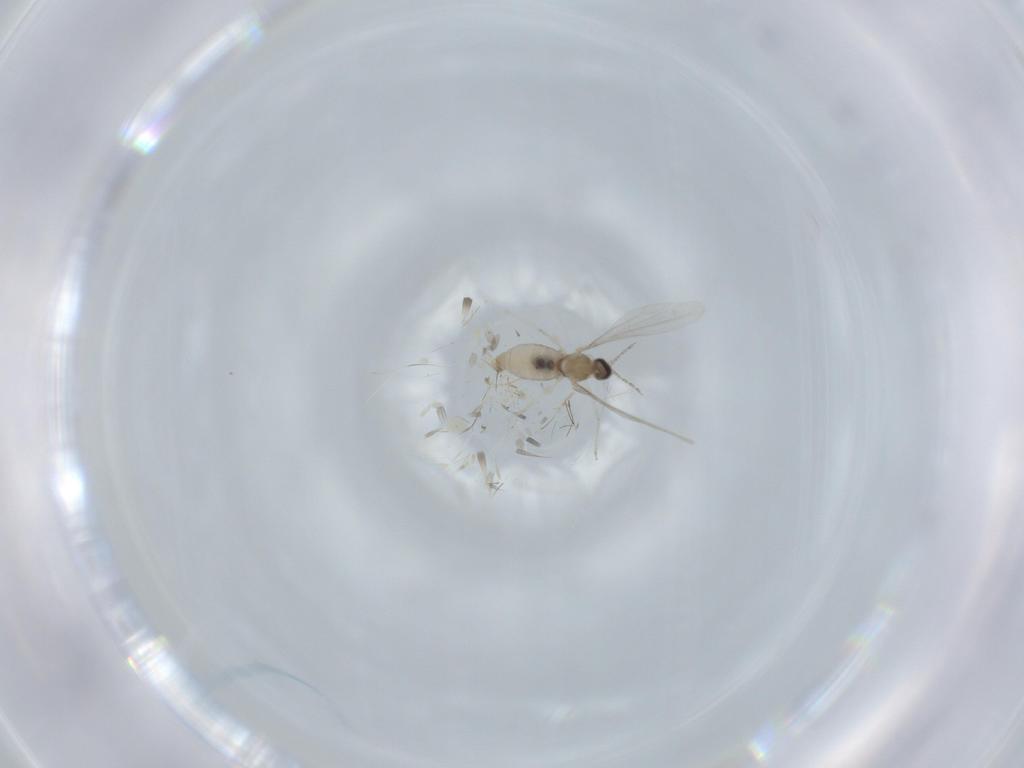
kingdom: Animalia
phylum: Arthropoda
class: Insecta
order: Diptera
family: Cecidomyiidae
